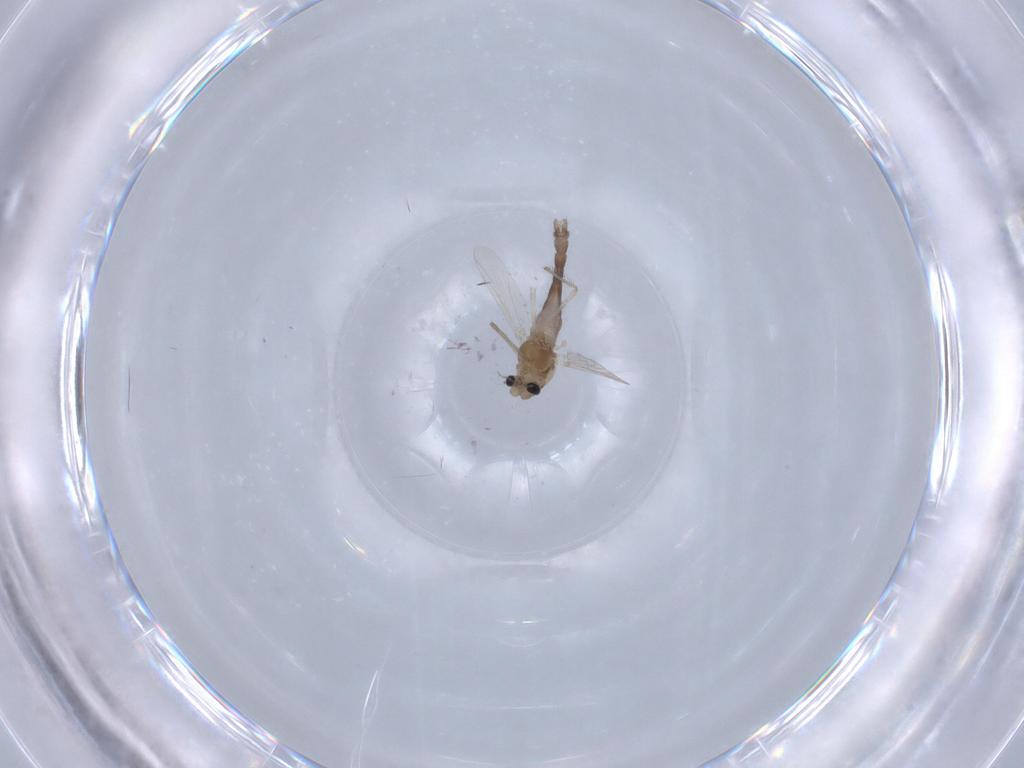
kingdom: Animalia
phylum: Arthropoda
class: Insecta
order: Diptera
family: Chironomidae
